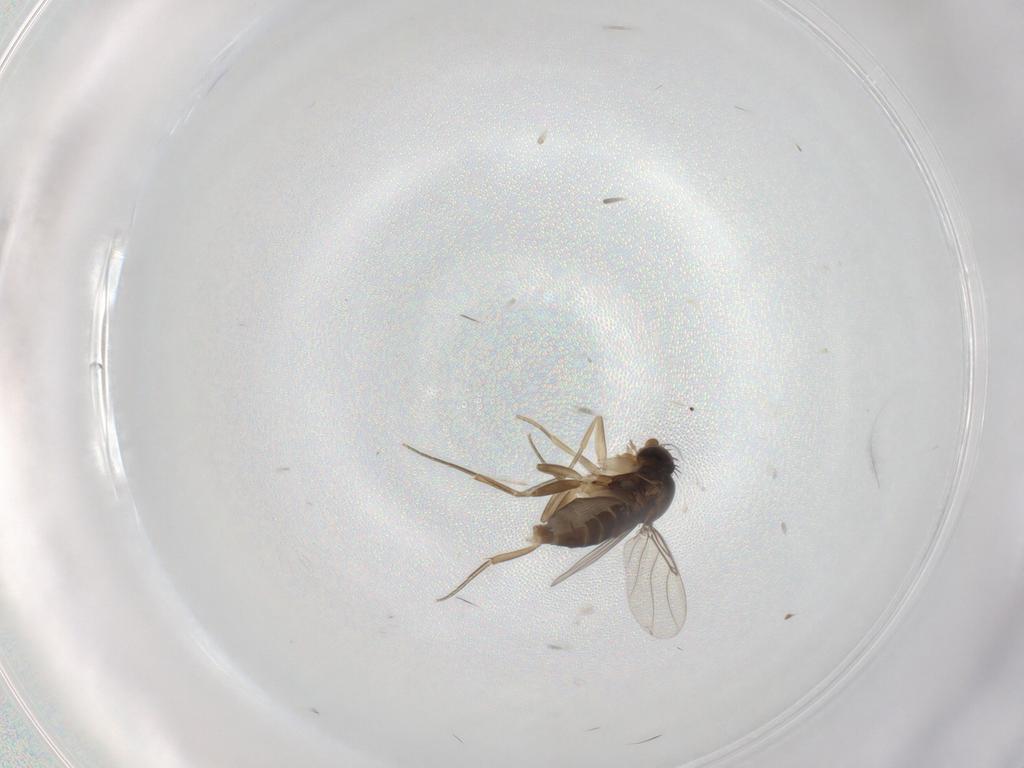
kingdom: Animalia
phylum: Arthropoda
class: Insecta
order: Diptera
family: Phoridae
